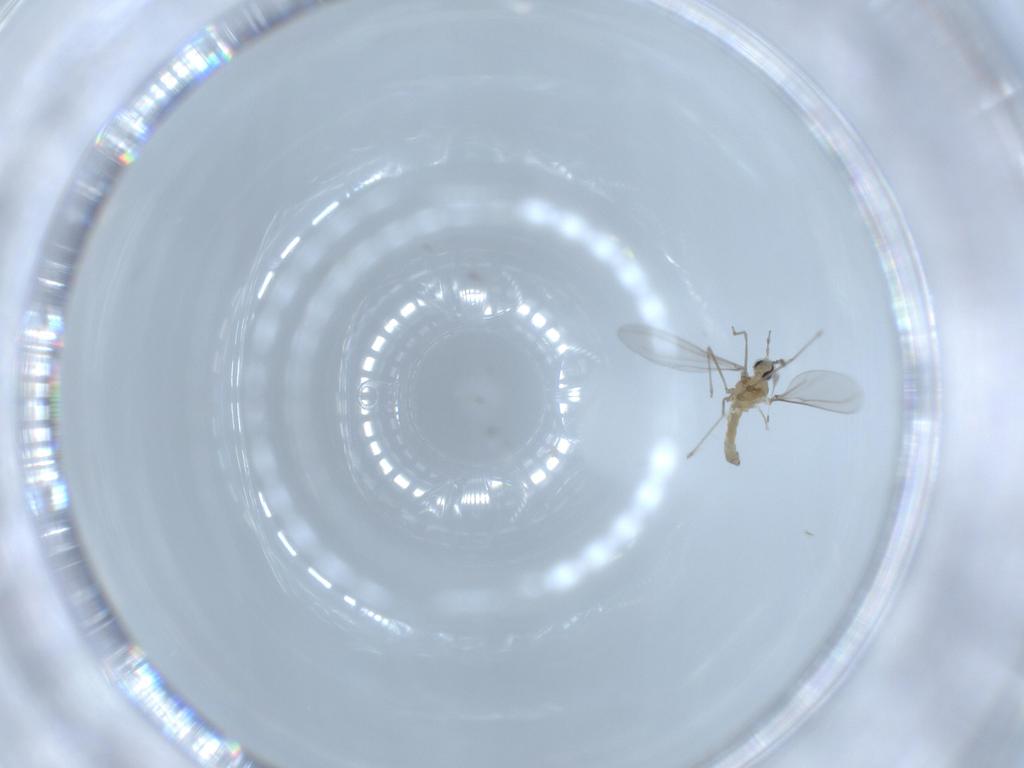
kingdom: Animalia
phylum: Arthropoda
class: Insecta
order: Diptera
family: Cecidomyiidae
